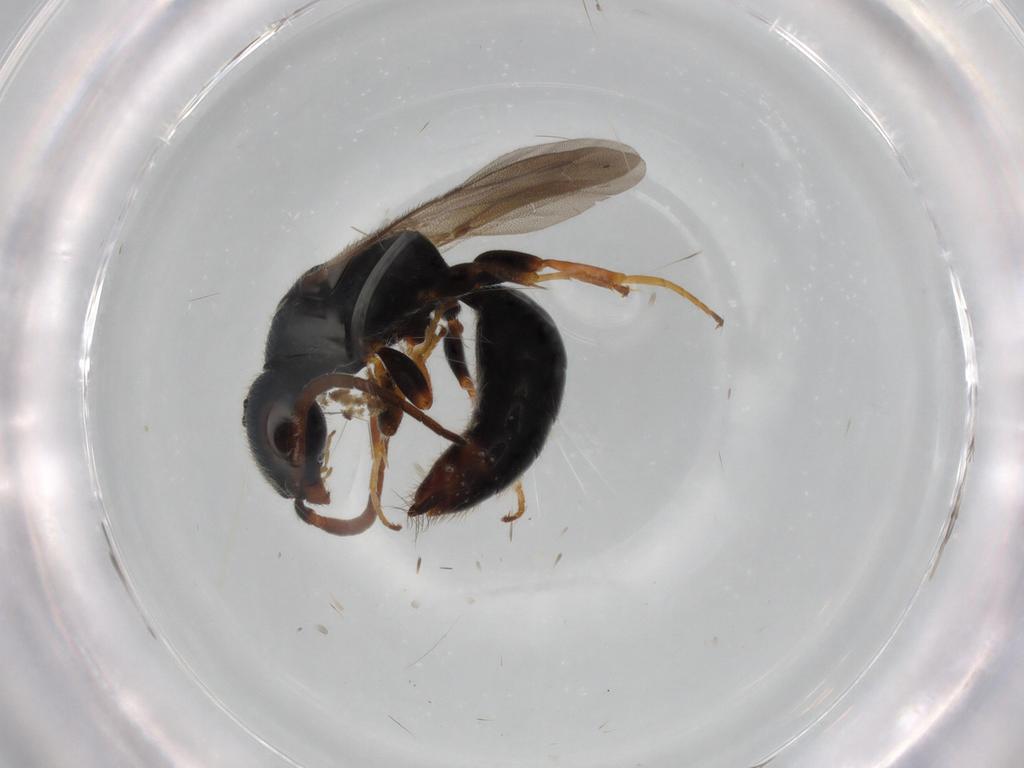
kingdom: Animalia
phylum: Arthropoda
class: Insecta
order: Hymenoptera
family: Bethylidae
